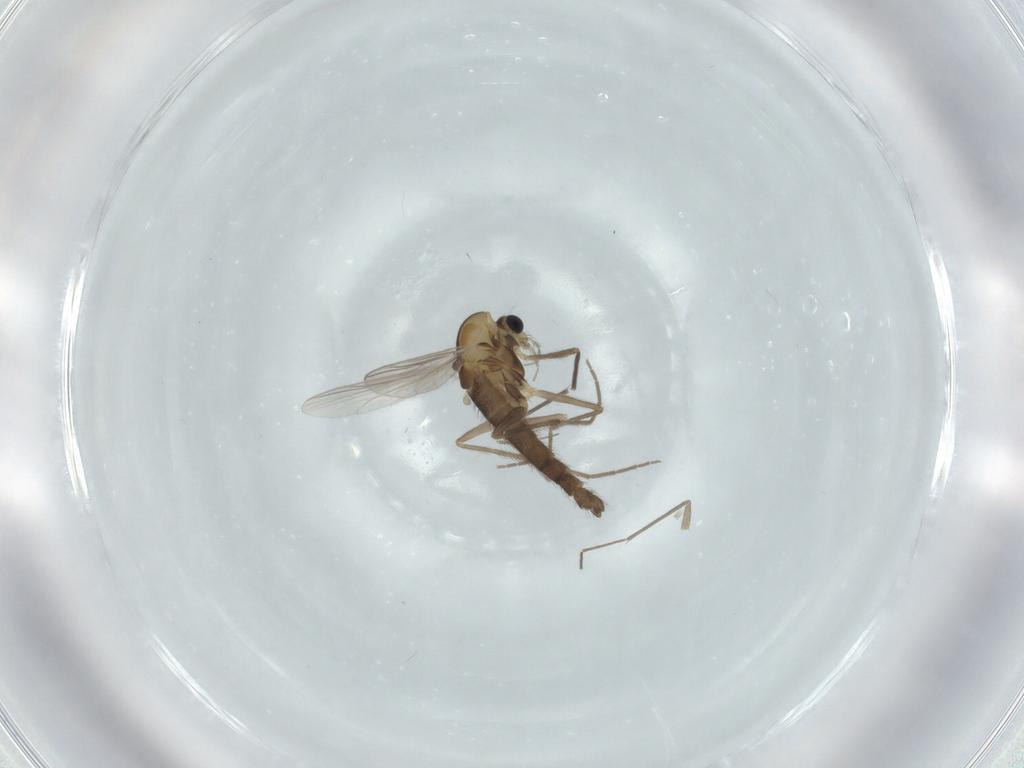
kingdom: Animalia
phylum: Arthropoda
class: Insecta
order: Diptera
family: Chironomidae
